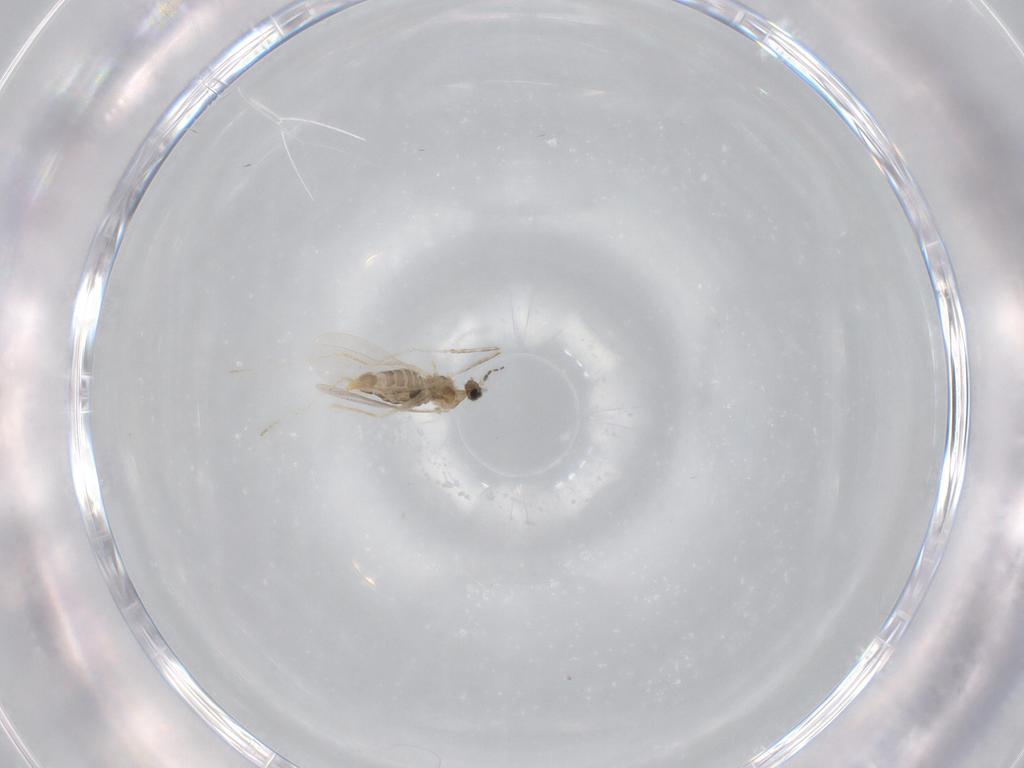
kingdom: Animalia
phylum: Arthropoda
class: Insecta
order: Diptera
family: Cecidomyiidae
